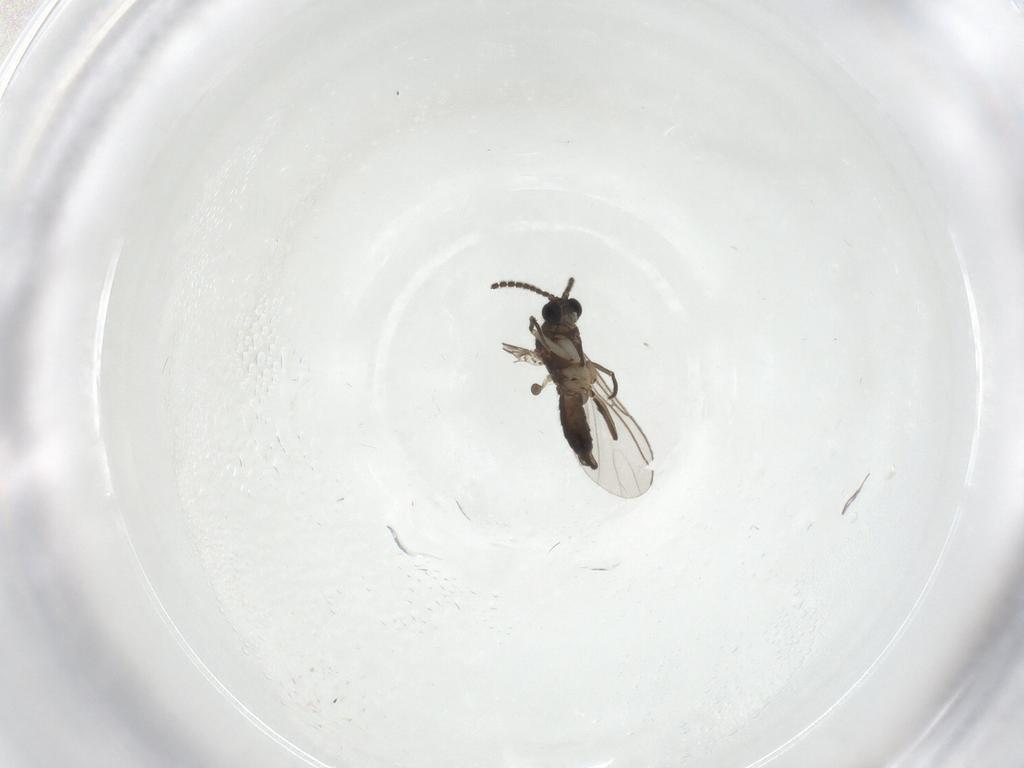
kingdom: Animalia
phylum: Arthropoda
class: Insecta
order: Diptera
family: Sciaridae
